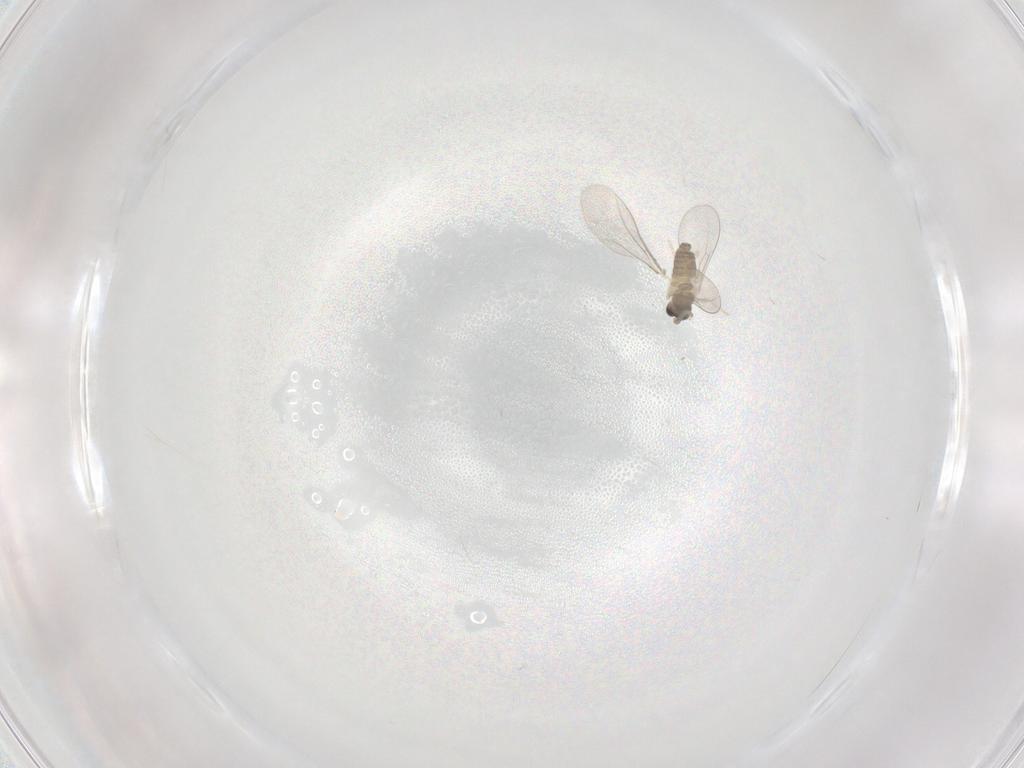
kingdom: Animalia
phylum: Arthropoda
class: Insecta
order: Diptera
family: Cecidomyiidae
